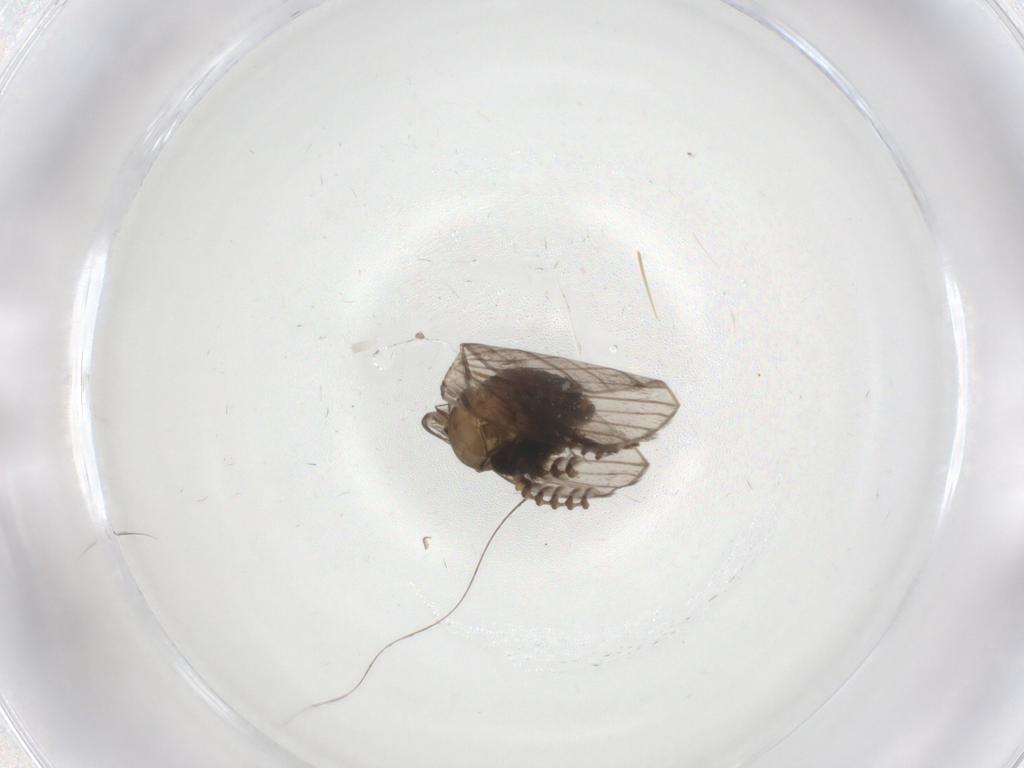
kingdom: Animalia
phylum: Arthropoda
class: Insecta
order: Diptera
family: Psychodidae
